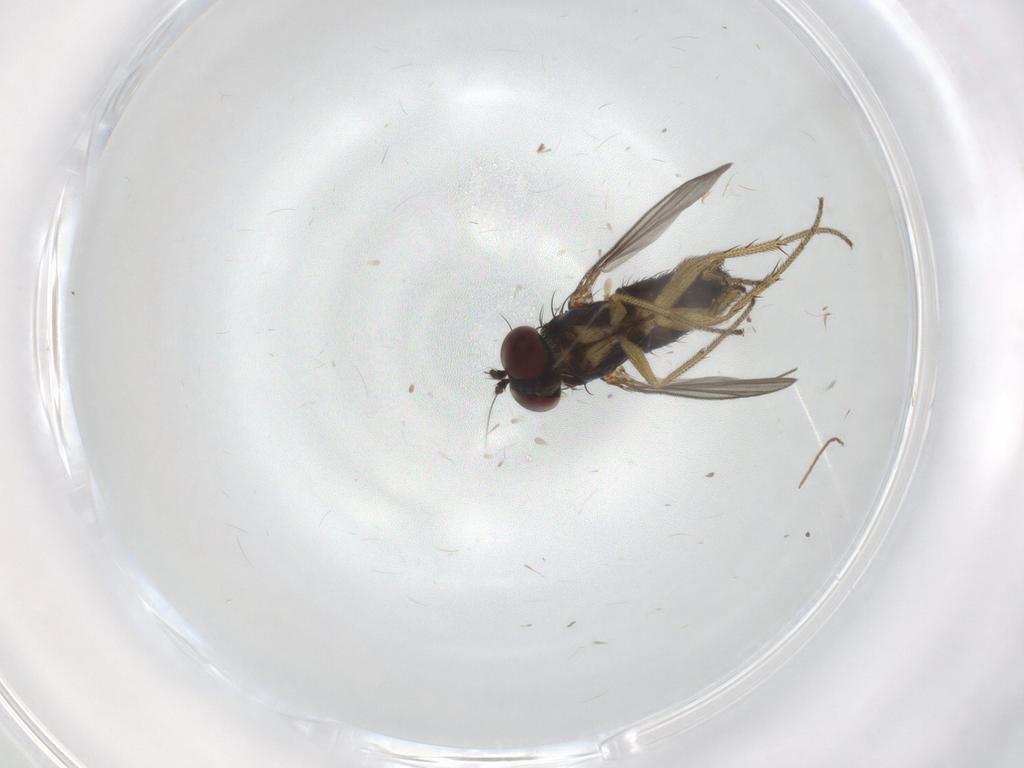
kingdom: Animalia
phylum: Arthropoda
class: Insecta
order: Diptera
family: Dolichopodidae
